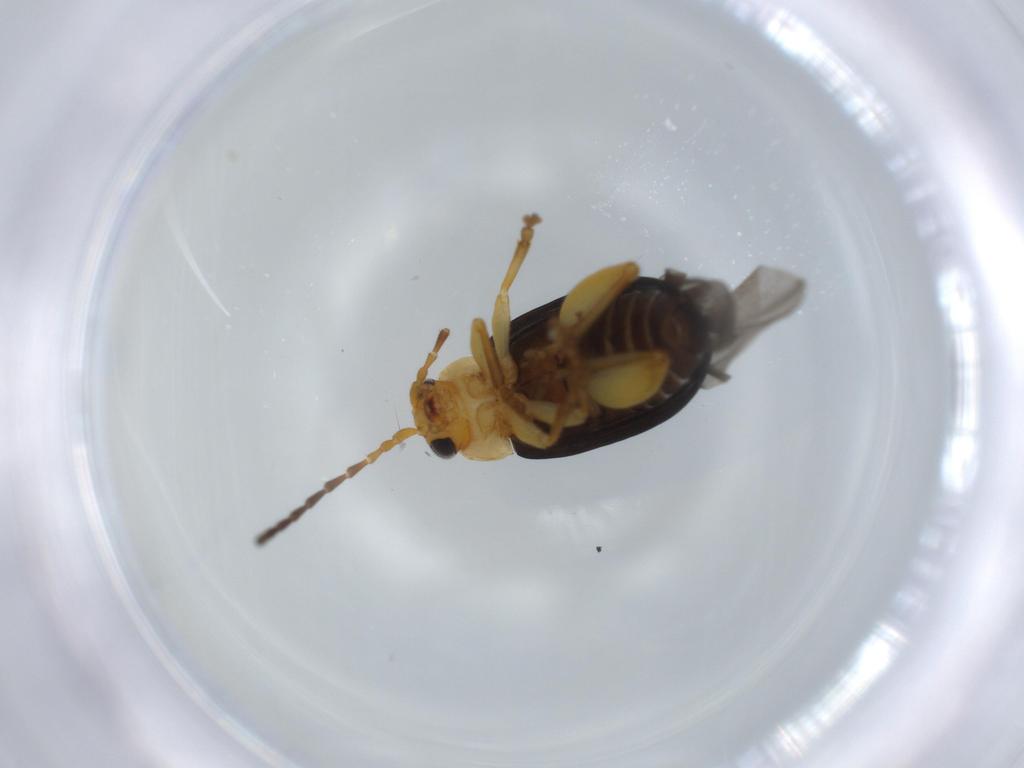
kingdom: Animalia
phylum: Arthropoda
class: Insecta
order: Coleoptera
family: Chrysomelidae
